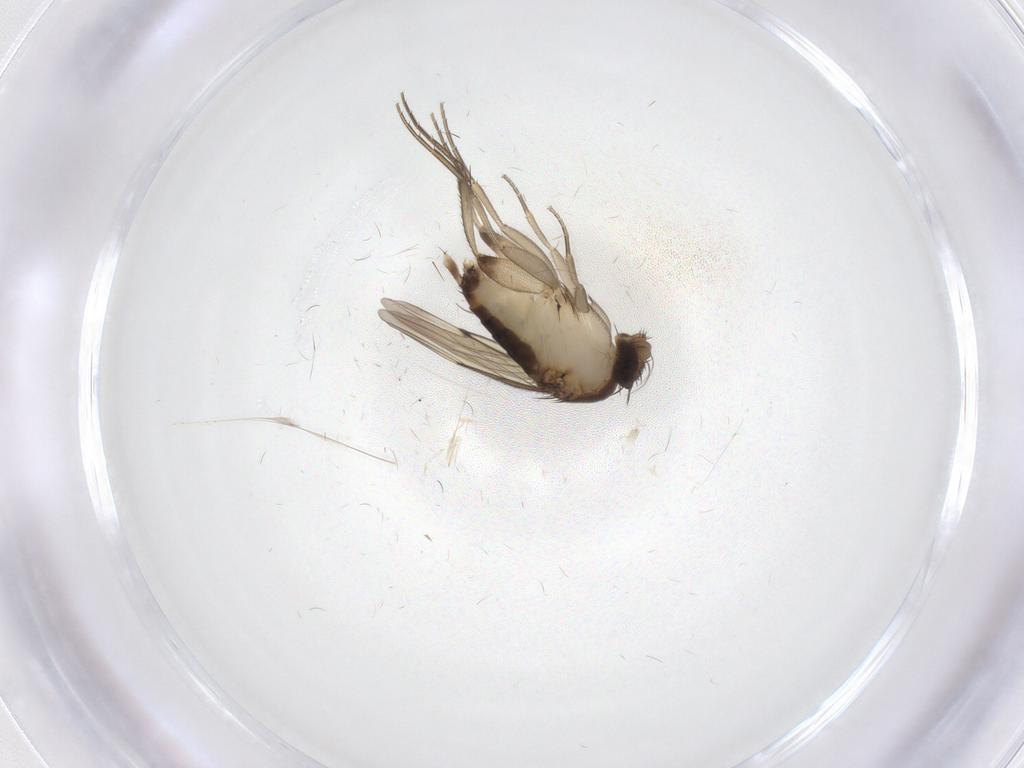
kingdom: Animalia
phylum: Arthropoda
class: Insecta
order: Diptera
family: Phoridae
